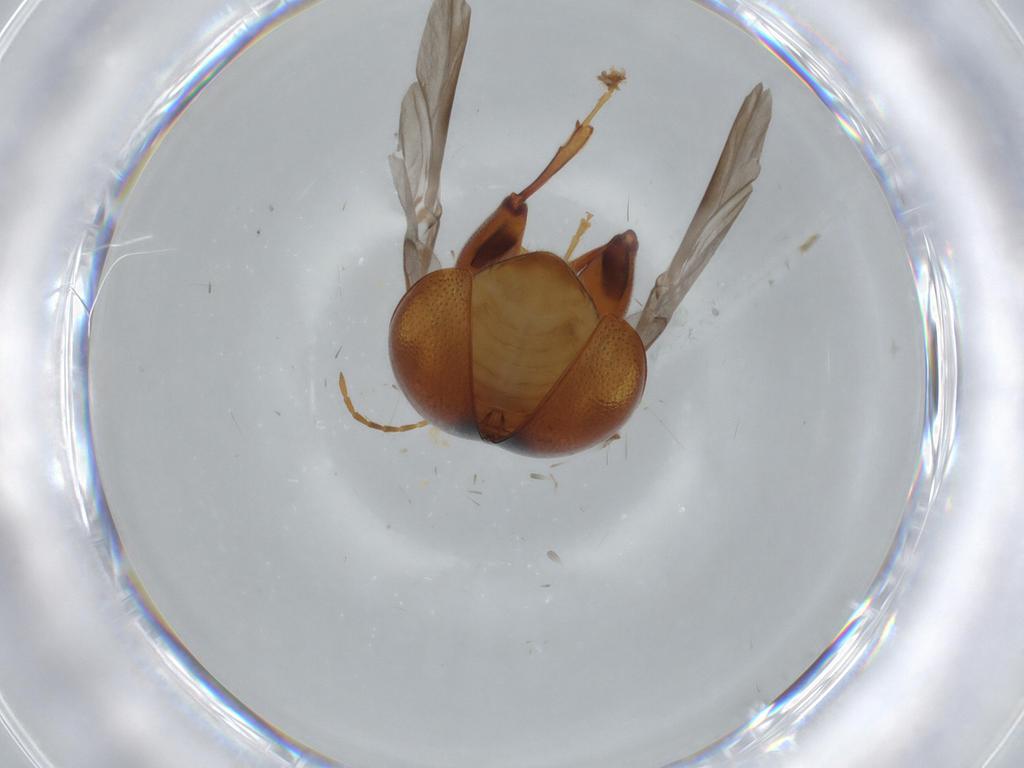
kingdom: Animalia
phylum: Arthropoda
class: Insecta
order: Coleoptera
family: Chrysomelidae
